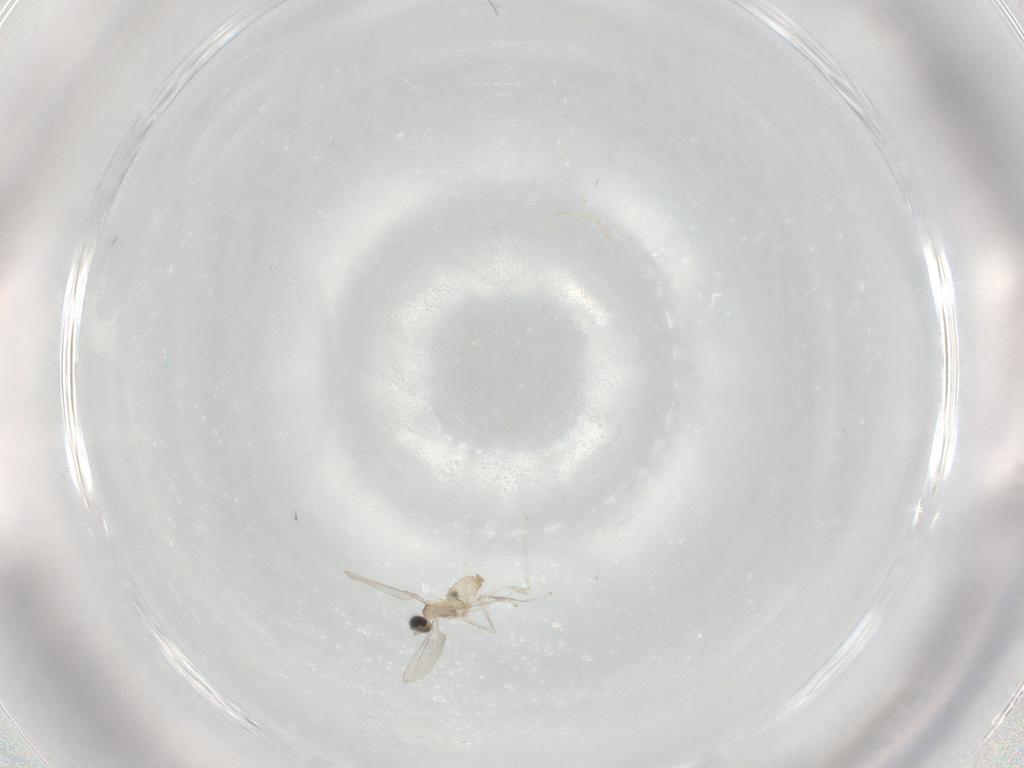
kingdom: Animalia
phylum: Arthropoda
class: Insecta
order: Diptera
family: Cecidomyiidae
